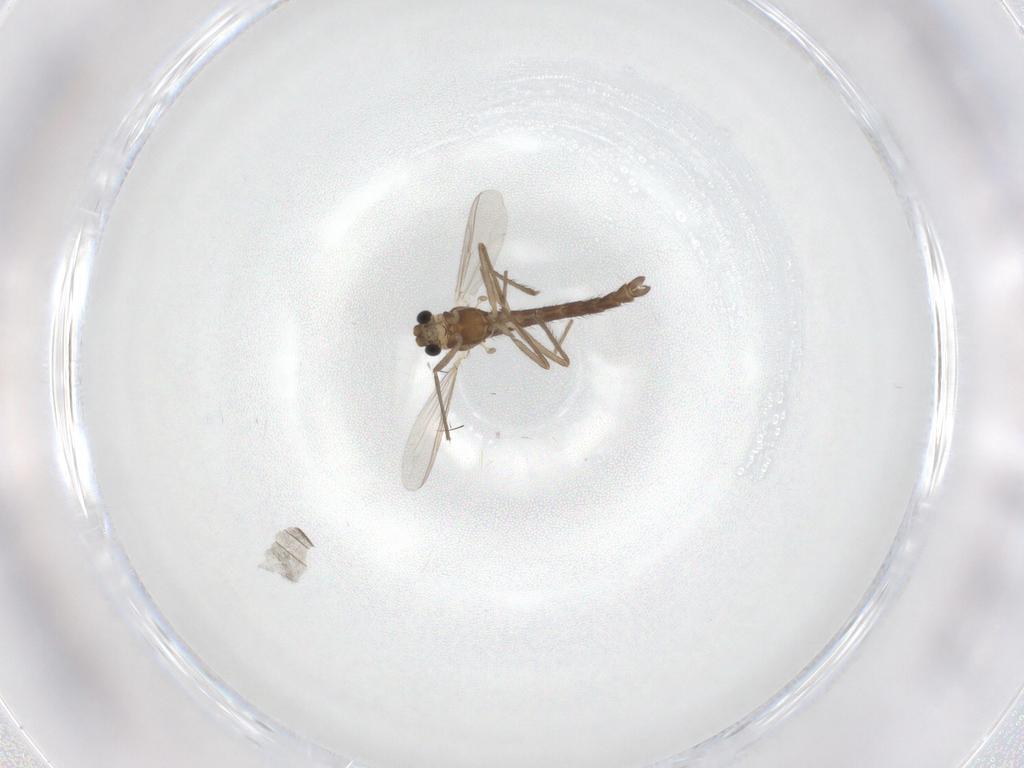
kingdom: Animalia
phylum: Arthropoda
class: Insecta
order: Diptera
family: Chironomidae
